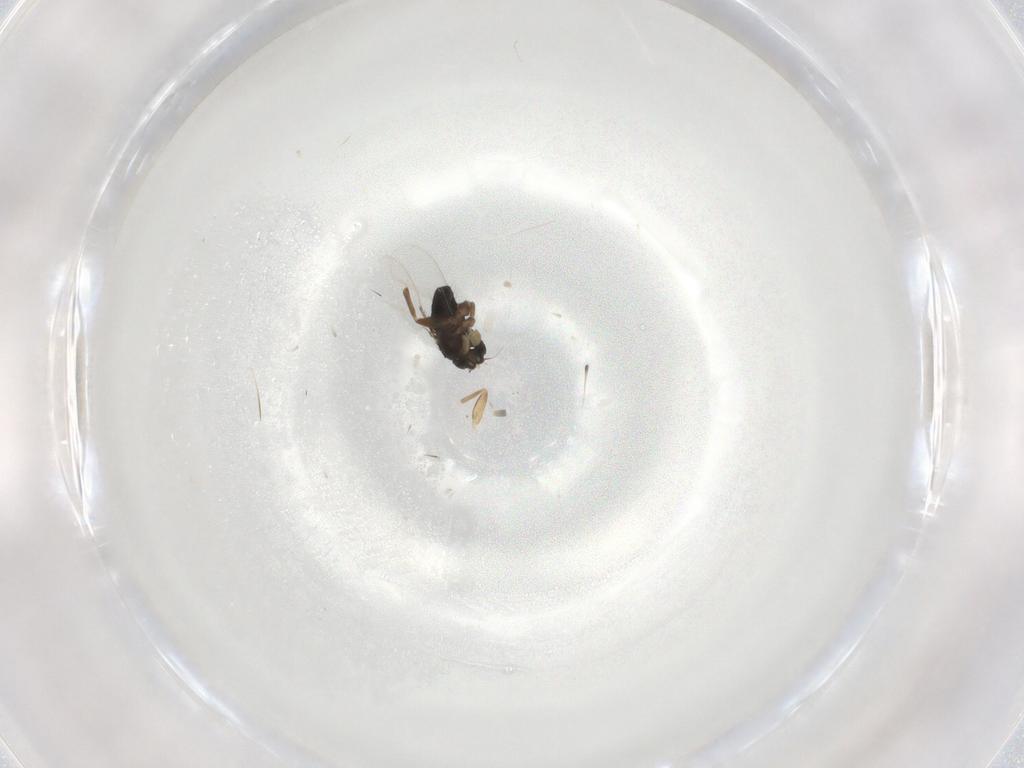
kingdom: Animalia
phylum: Arthropoda
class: Insecta
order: Diptera
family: Phoridae
